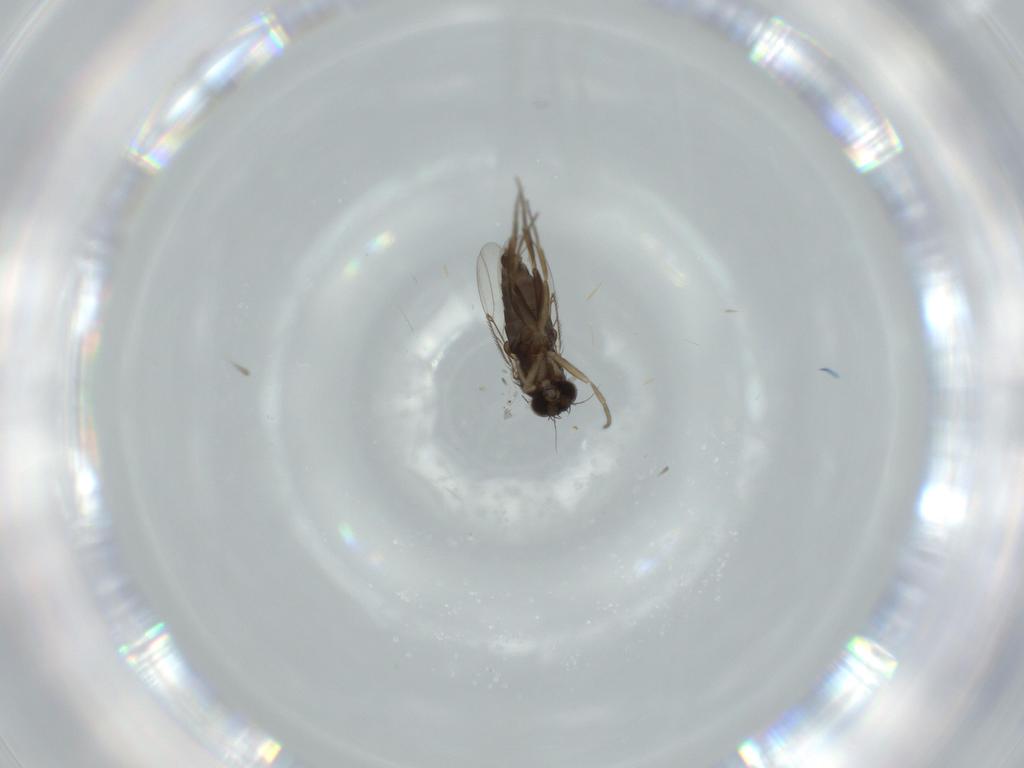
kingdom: Animalia
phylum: Arthropoda
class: Insecta
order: Diptera
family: Phoridae
